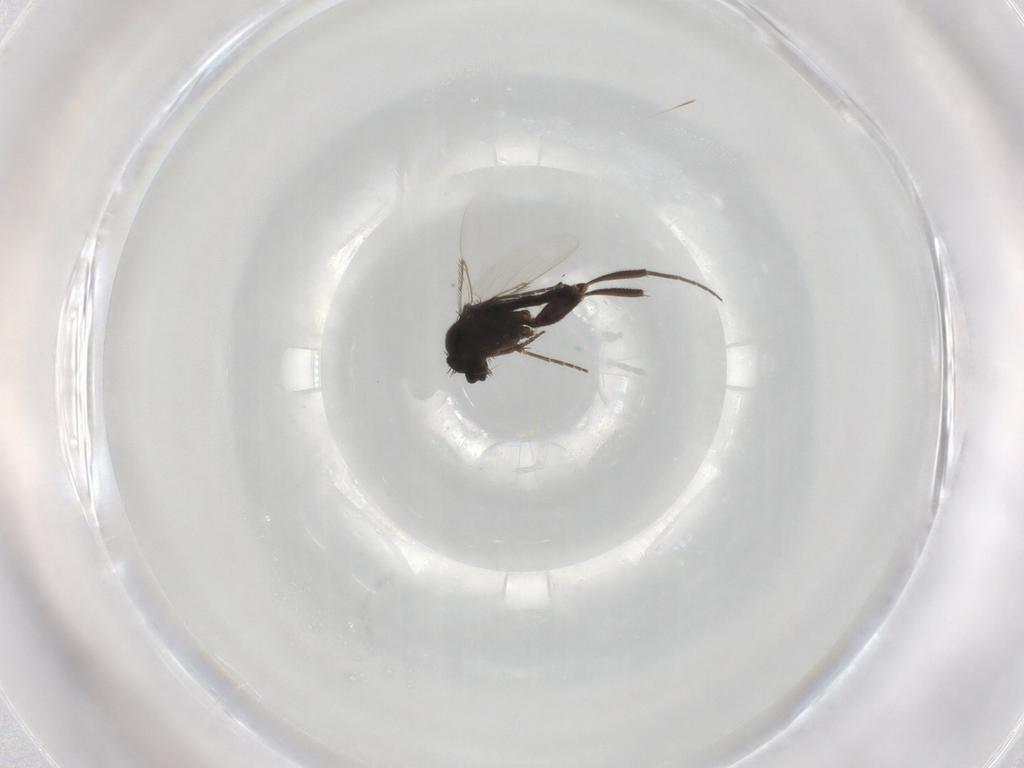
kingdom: Animalia
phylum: Arthropoda
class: Insecta
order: Diptera
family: Phoridae
